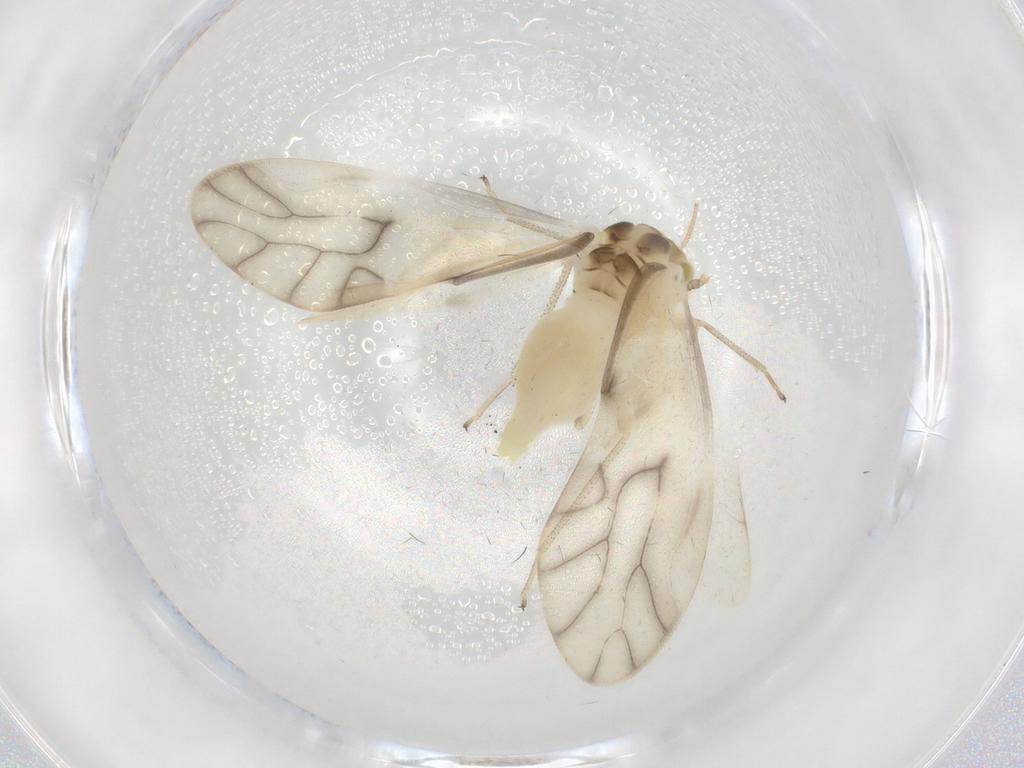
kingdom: Animalia
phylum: Arthropoda
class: Insecta
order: Psocodea
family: Caeciliusidae
